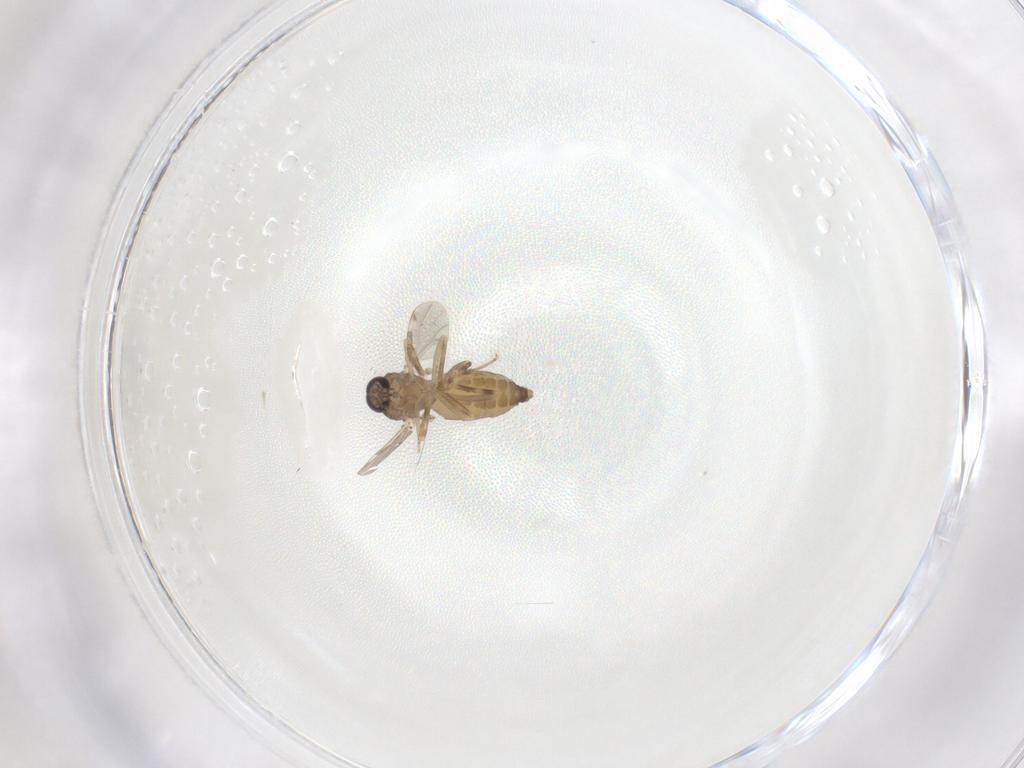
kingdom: Animalia
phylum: Arthropoda
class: Insecta
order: Diptera
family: Ceratopogonidae
